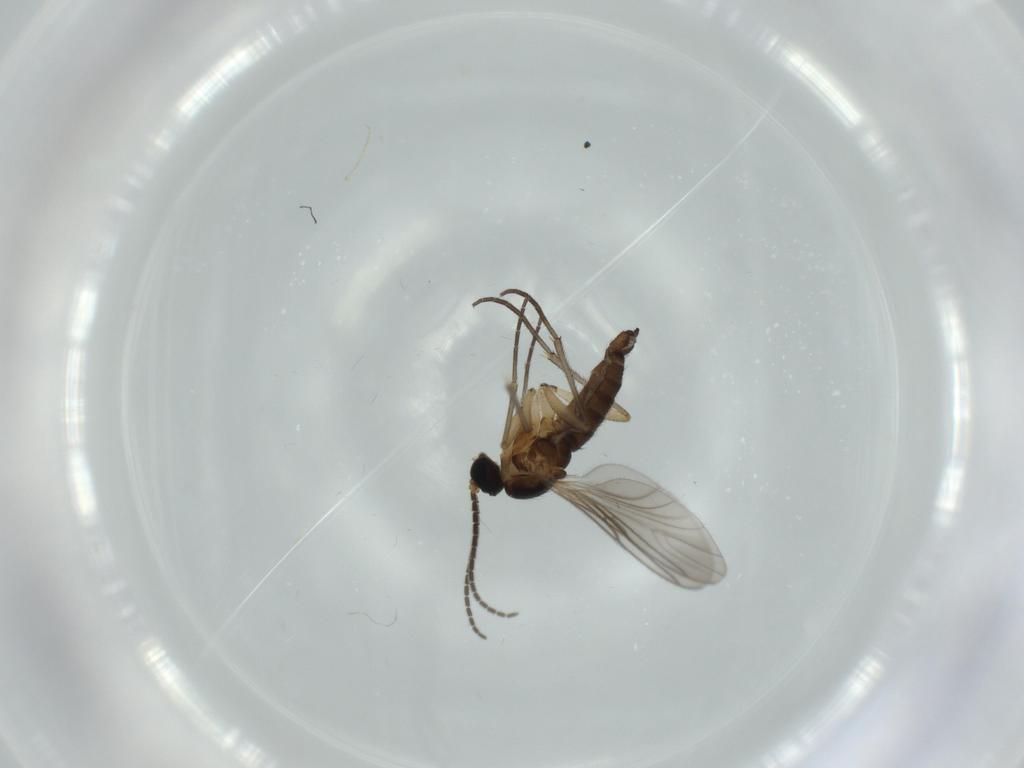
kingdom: Animalia
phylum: Arthropoda
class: Insecta
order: Diptera
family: Sciaridae
